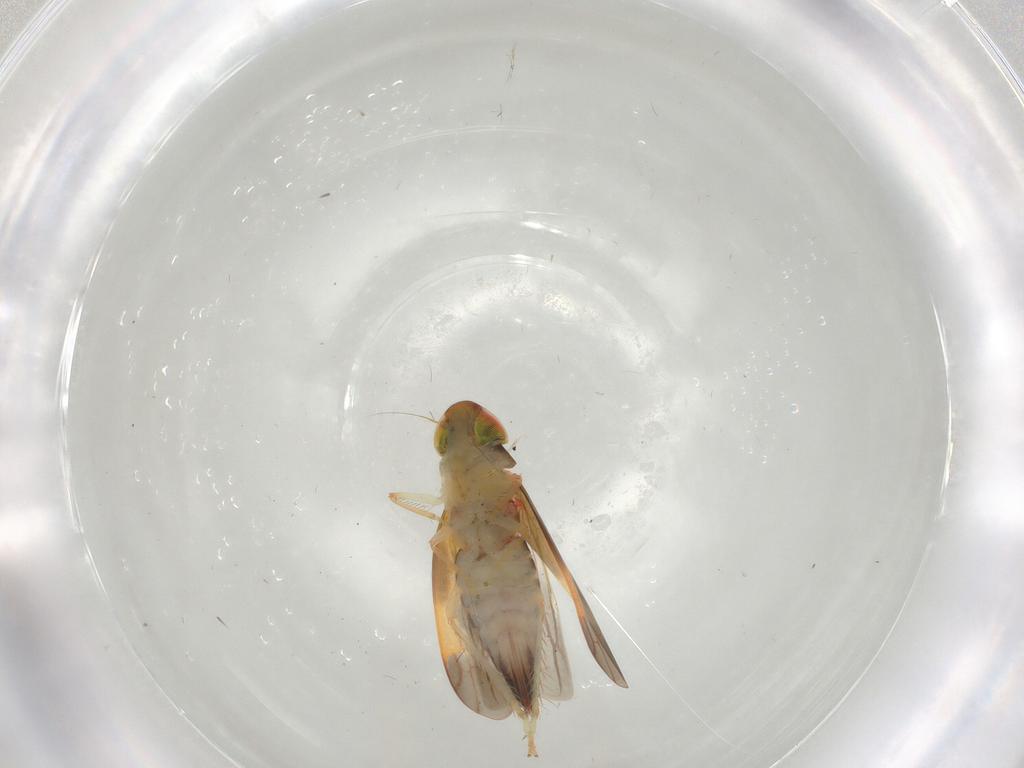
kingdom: Animalia
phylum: Arthropoda
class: Insecta
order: Hemiptera
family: Cicadellidae
